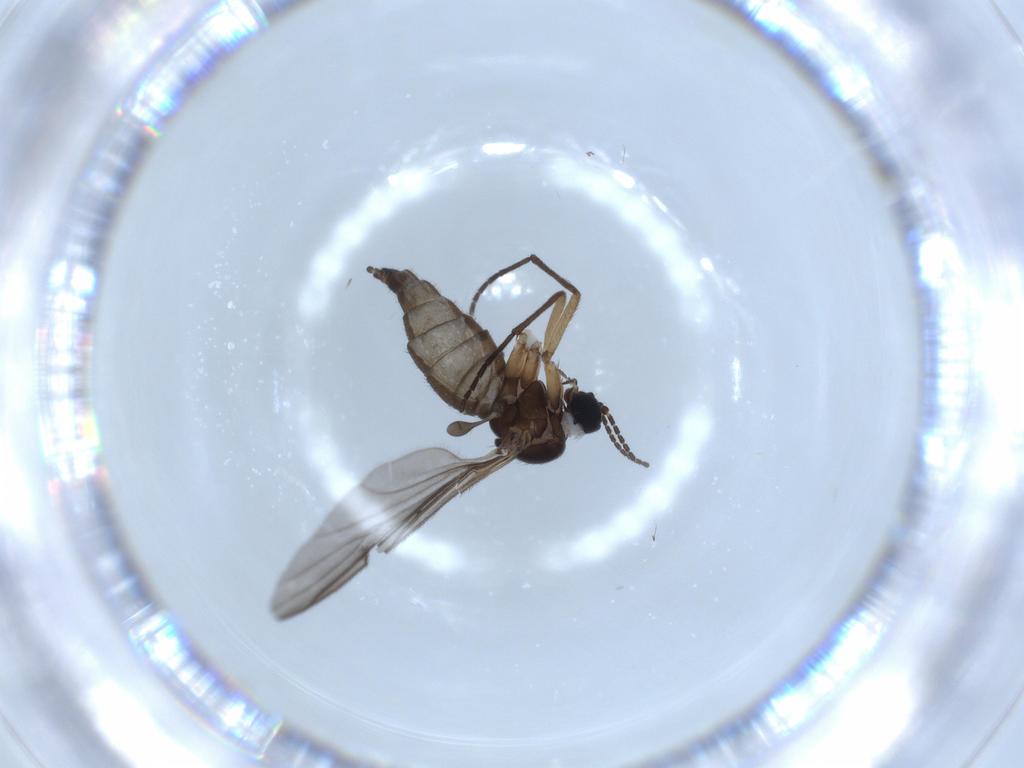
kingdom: Animalia
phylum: Arthropoda
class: Insecta
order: Diptera
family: Sciaridae
